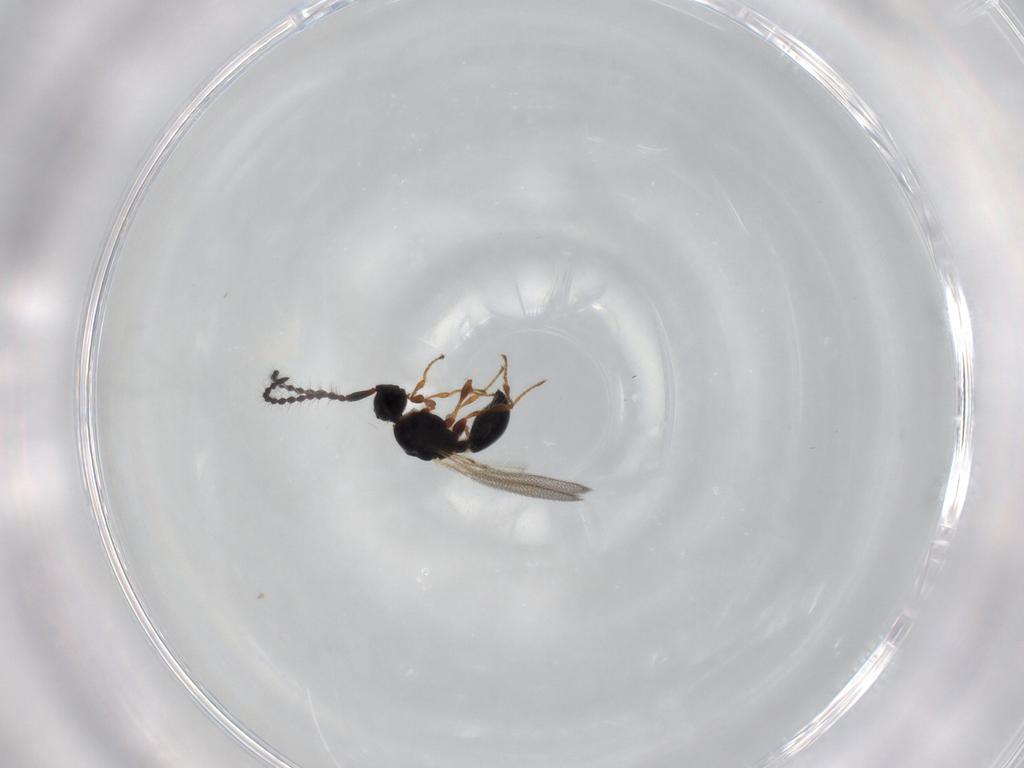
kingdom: Animalia
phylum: Arthropoda
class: Insecta
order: Hymenoptera
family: Diapriidae
